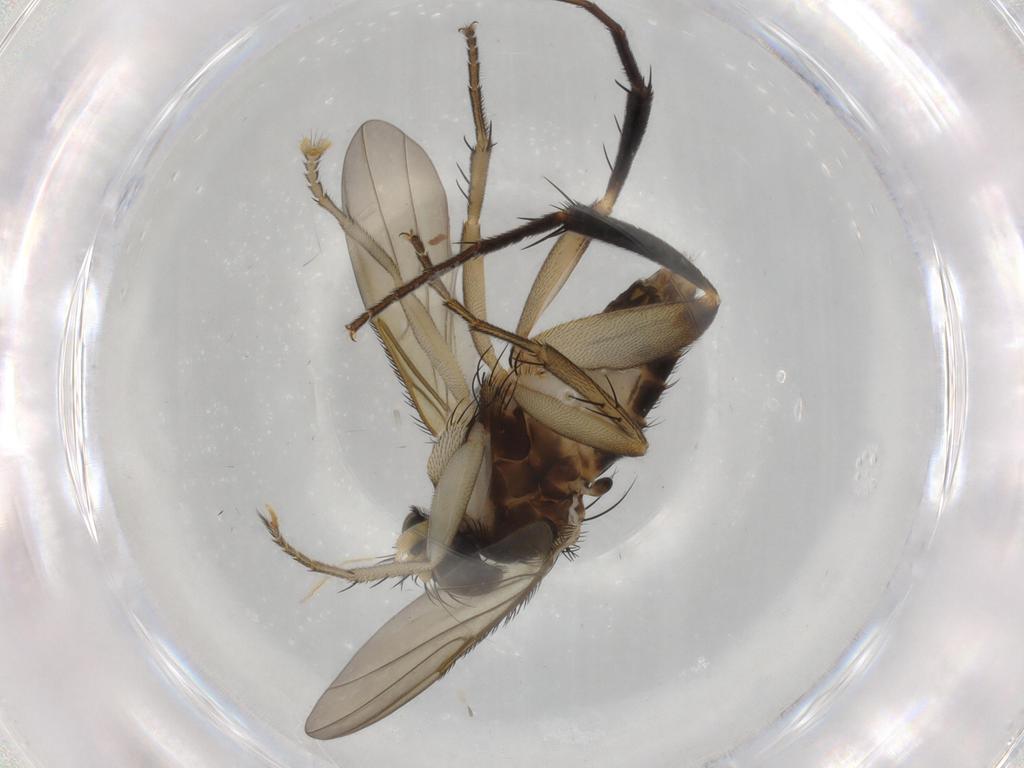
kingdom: Animalia
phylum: Arthropoda
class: Insecta
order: Diptera
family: Phoridae
